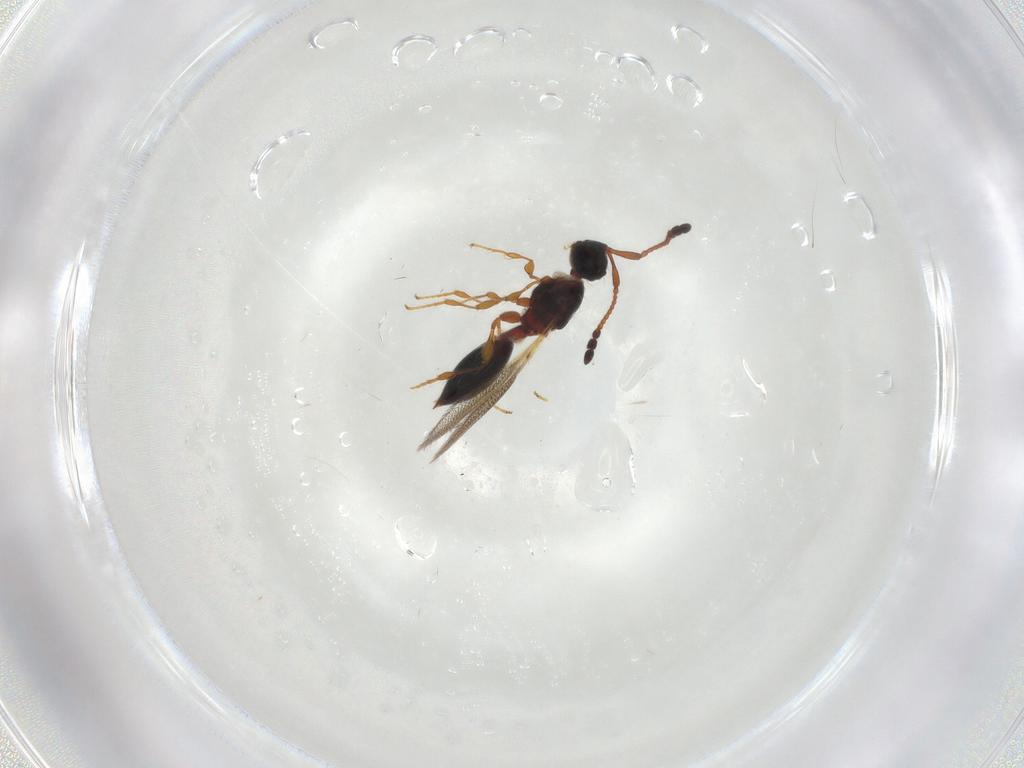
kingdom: Animalia
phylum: Arthropoda
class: Insecta
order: Hymenoptera
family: Diapriidae
